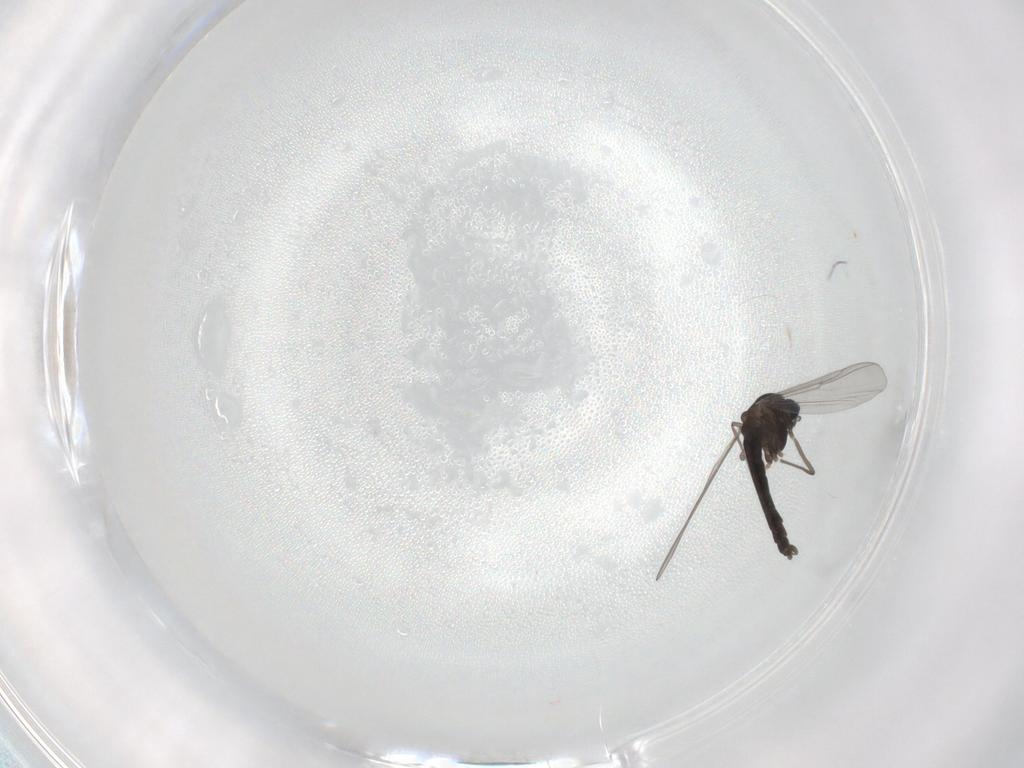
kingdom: Animalia
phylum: Arthropoda
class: Insecta
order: Diptera
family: Chironomidae
